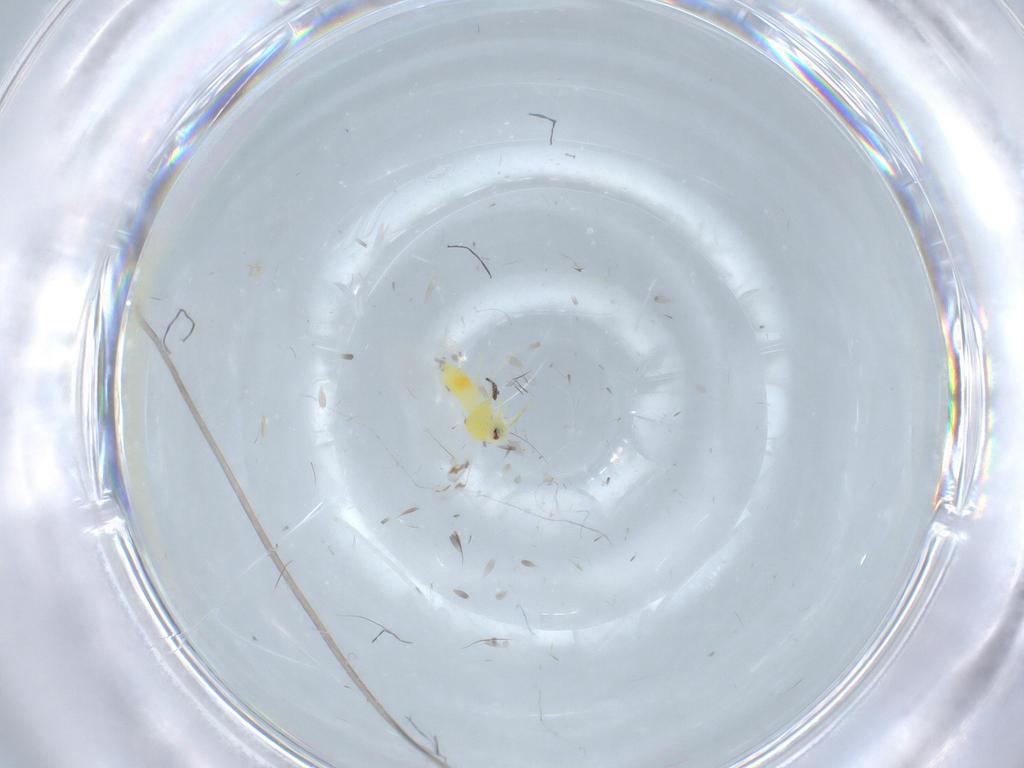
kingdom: Animalia
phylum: Arthropoda
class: Insecta
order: Hemiptera
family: Aleyrodidae
